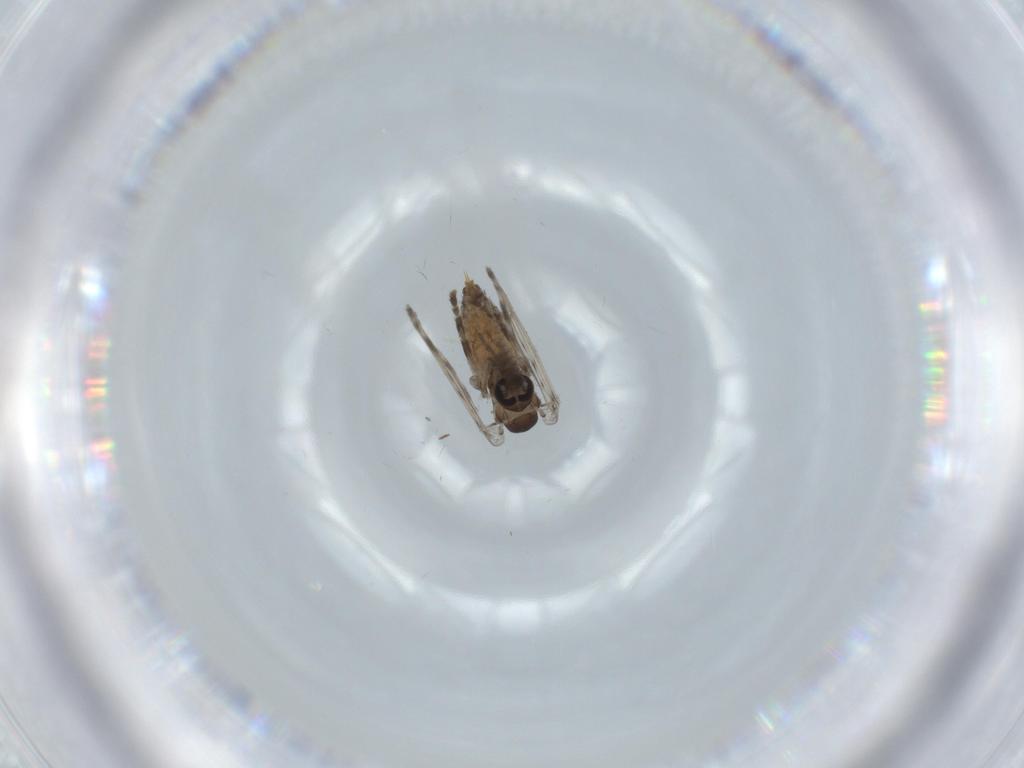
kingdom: Animalia
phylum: Arthropoda
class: Insecta
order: Diptera
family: Psychodidae
